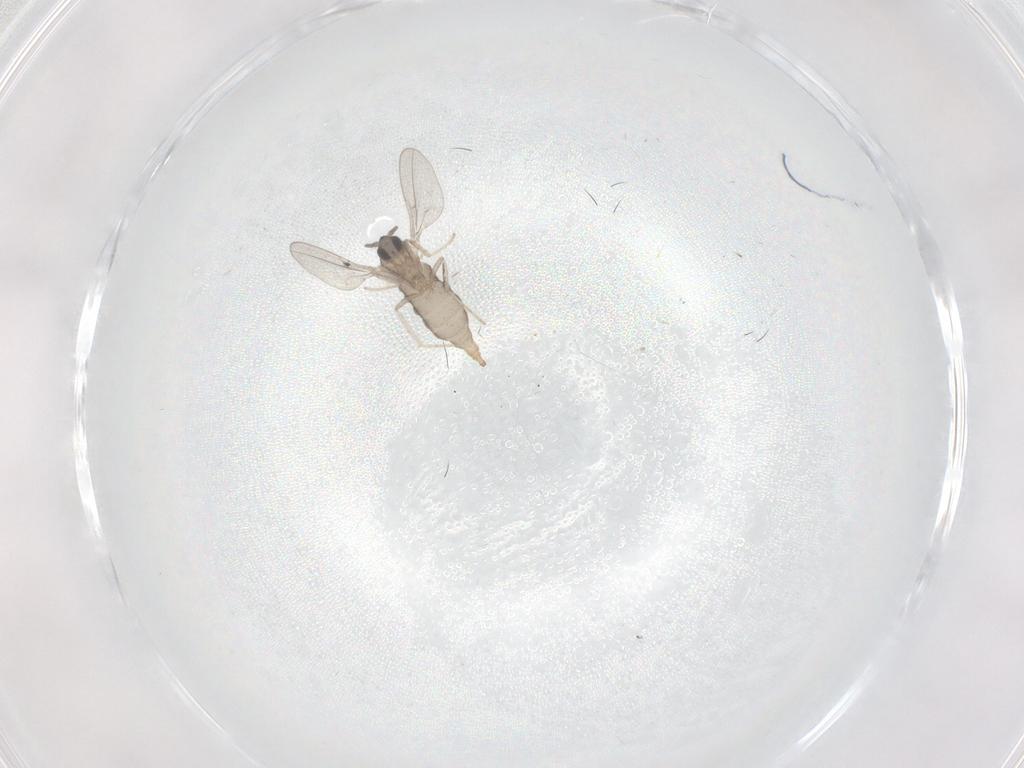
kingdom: Animalia
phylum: Arthropoda
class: Insecta
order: Diptera
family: Cecidomyiidae
